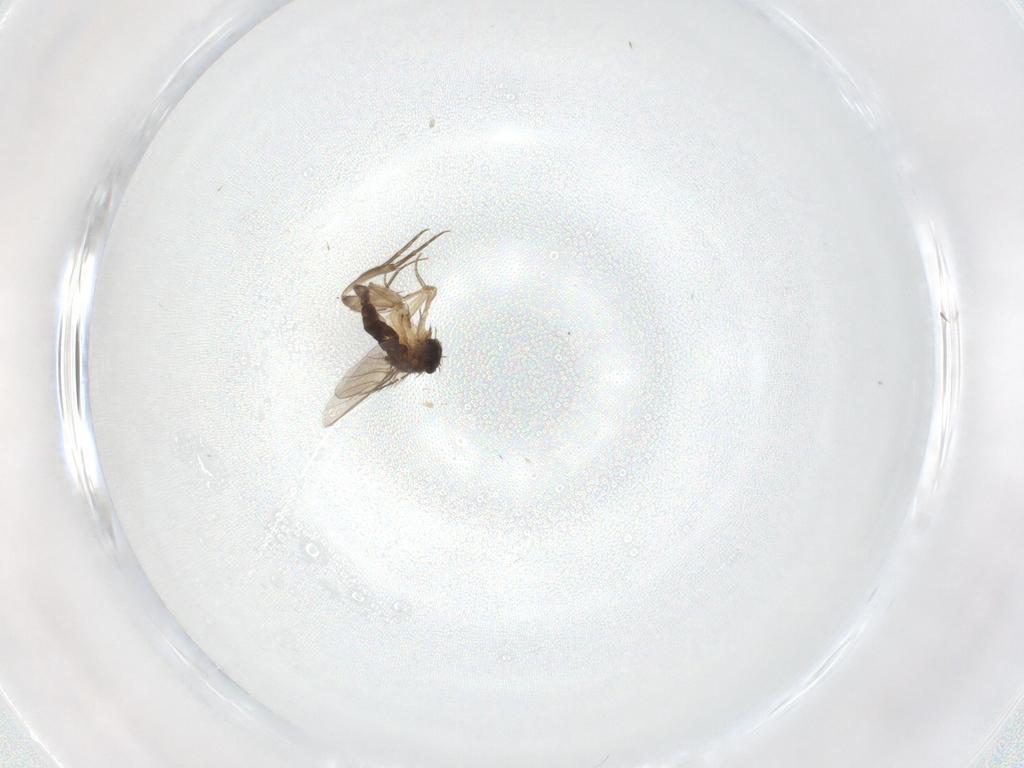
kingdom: Animalia
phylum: Arthropoda
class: Insecta
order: Diptera
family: Phoridae
